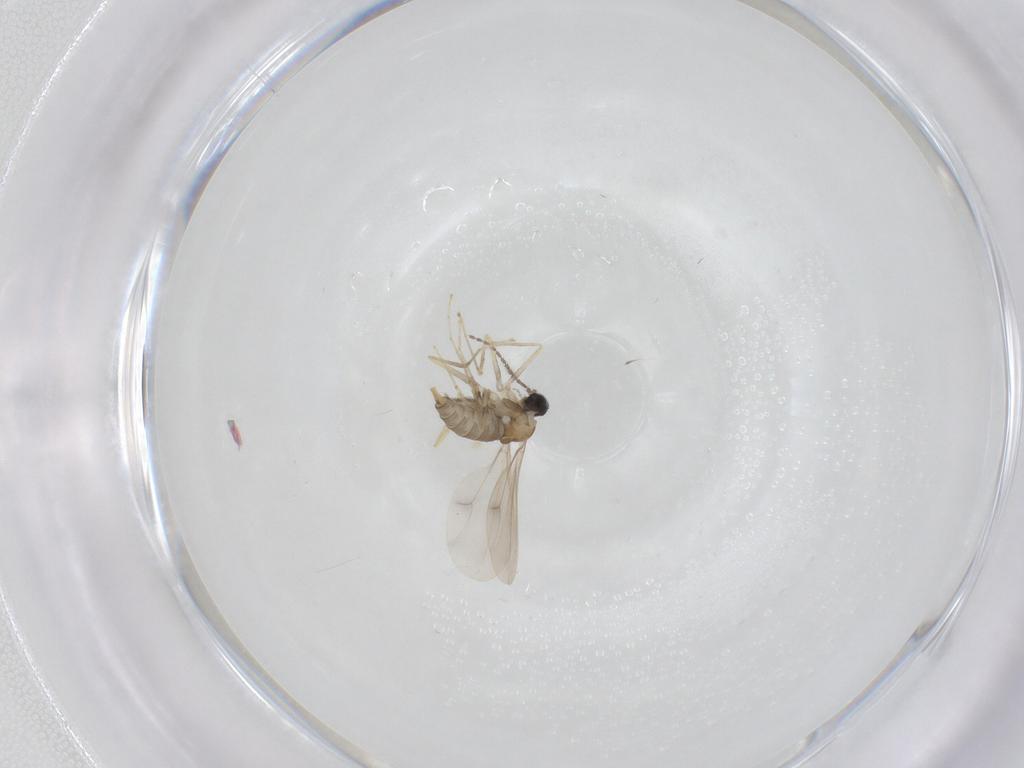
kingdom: Animalia
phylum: Arthropoda
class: Insecta
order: Diptera
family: Cecidomyiidae
